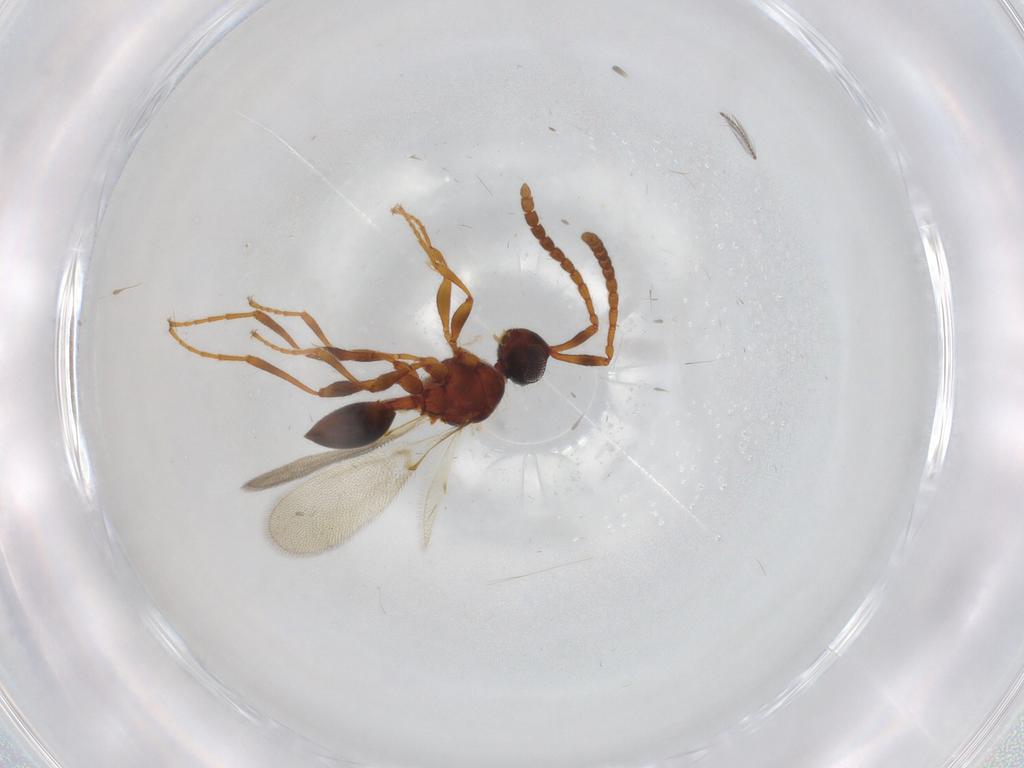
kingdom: Animalia
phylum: Arthropoda
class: Insecta
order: Hymenoptera
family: Diapriidae
